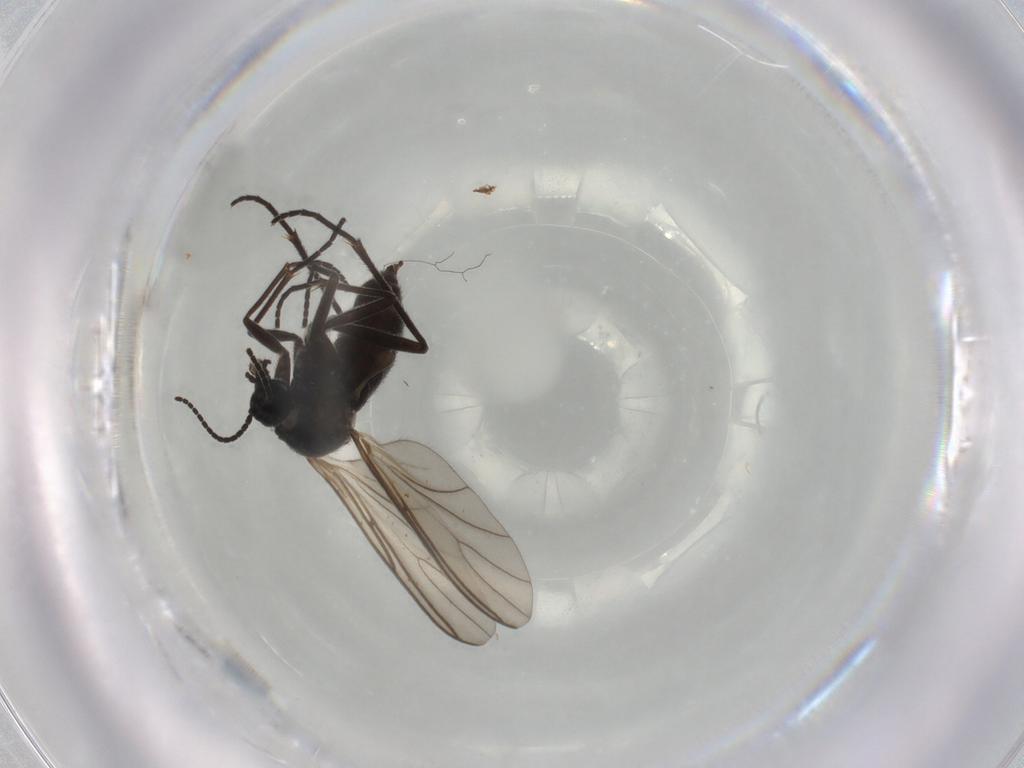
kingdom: Animalia
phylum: Arthropoda
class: Insecta
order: Diptera
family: Sciaridae
